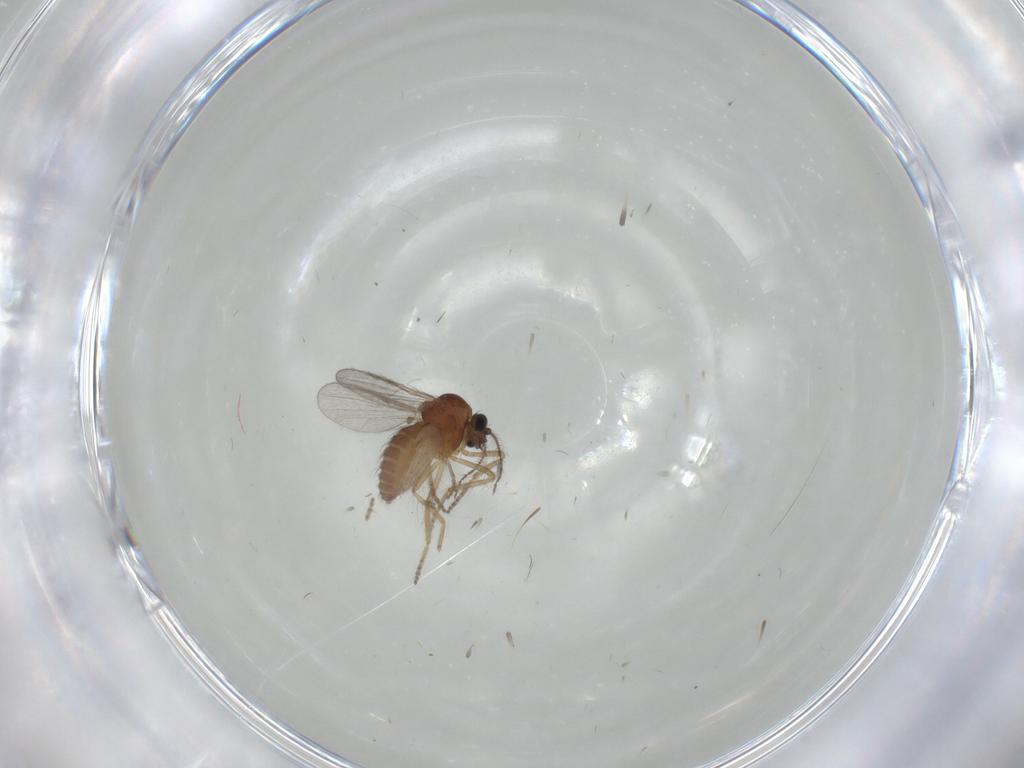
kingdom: Animalia
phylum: Arthropoda
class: Insecta
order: Diptera
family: Ceratopogonidae
